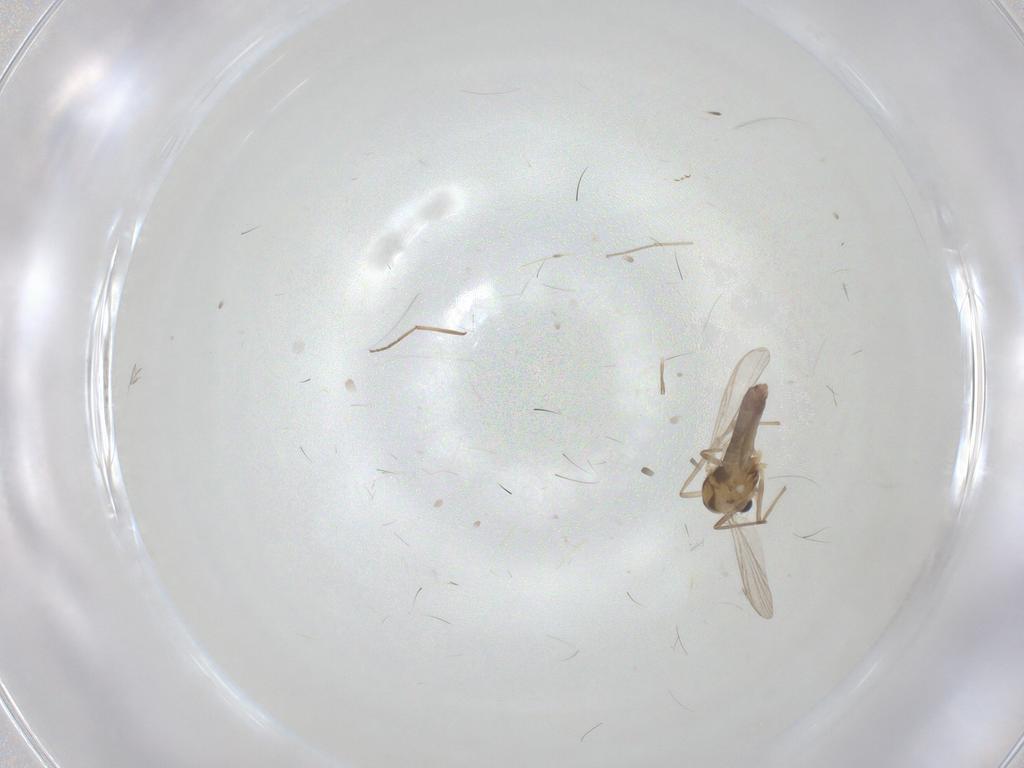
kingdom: Animalia
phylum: Arthropoda
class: Insecta
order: Diptera
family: Chironomidae
